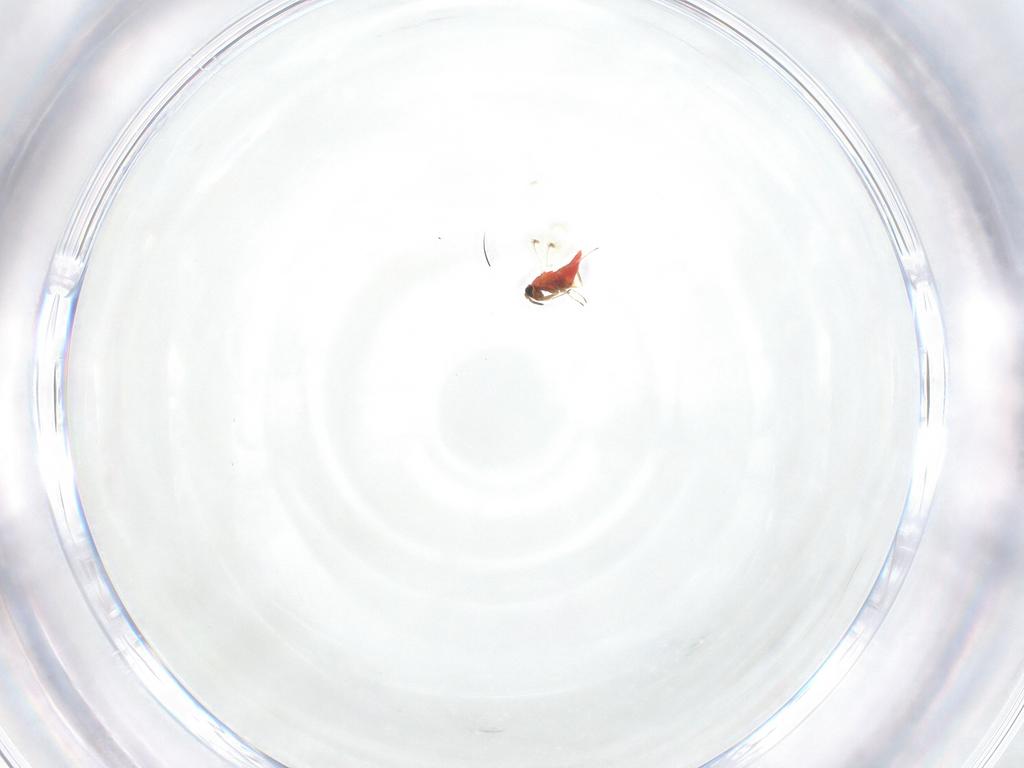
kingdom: Animalia
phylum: Arthropoda
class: Insecta
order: Hymenoptera
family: Trichogrammatidae
